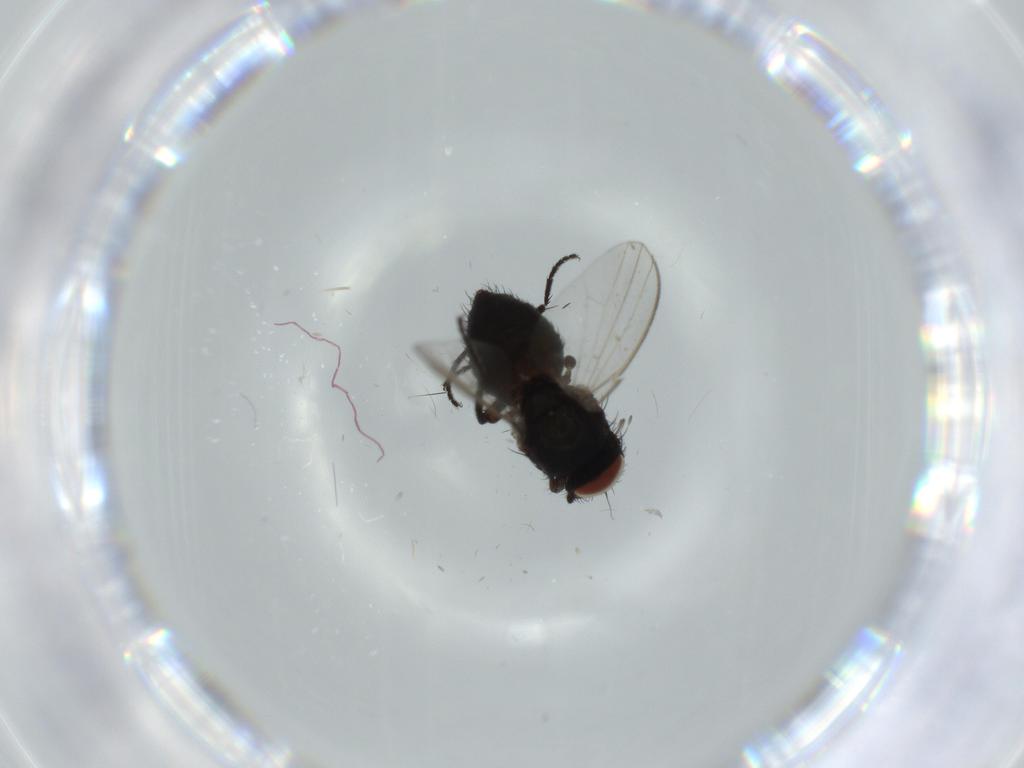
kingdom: Animalia
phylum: Arthropoda
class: Insecta
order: Diptera
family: Milichiidae
